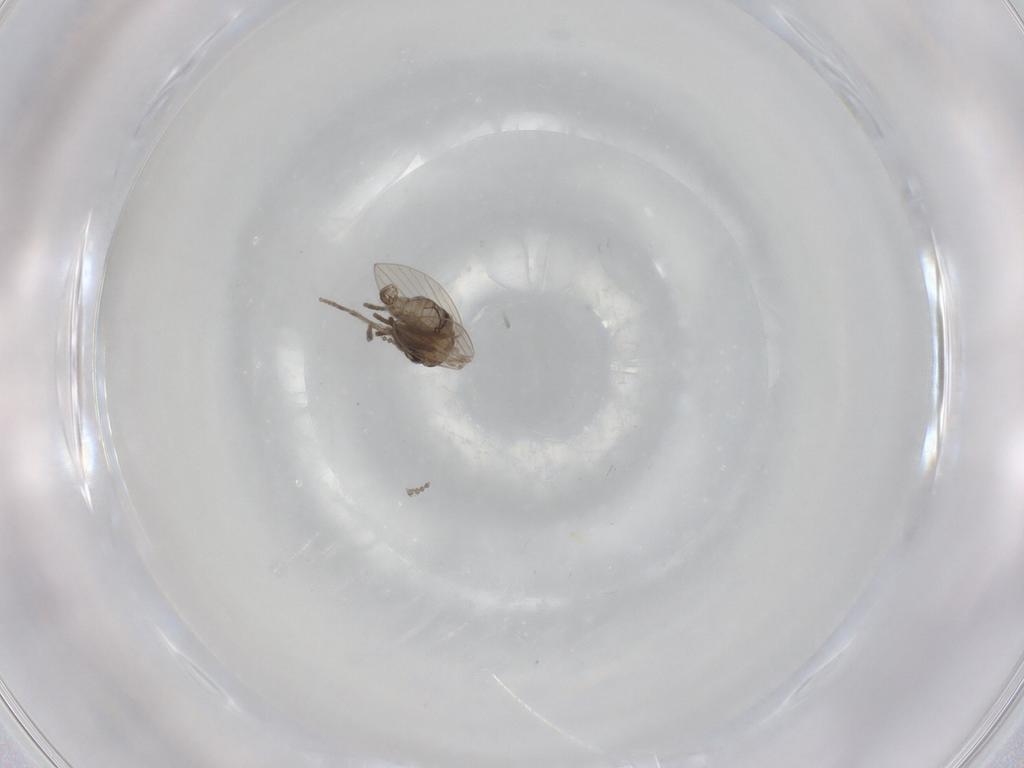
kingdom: Animalia
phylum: Arthropoda
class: Insecta
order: Diptera
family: Psychodidae
